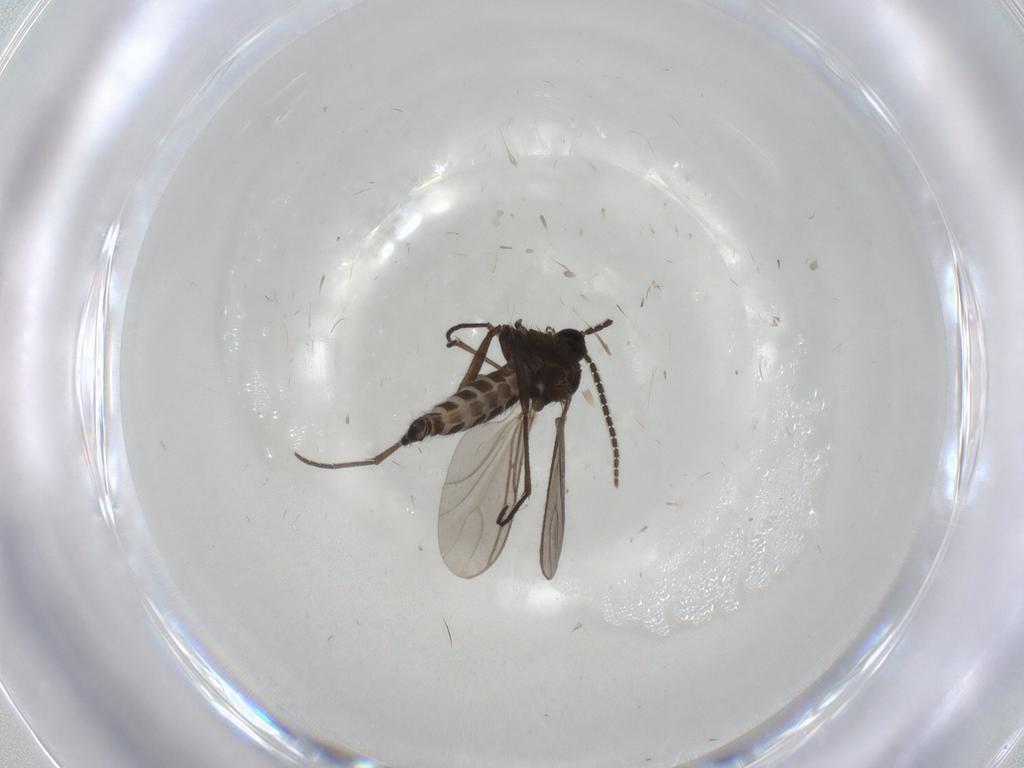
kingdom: Animalia
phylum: Arthropoda
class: Insecta
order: Diptera
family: Sciaridae
